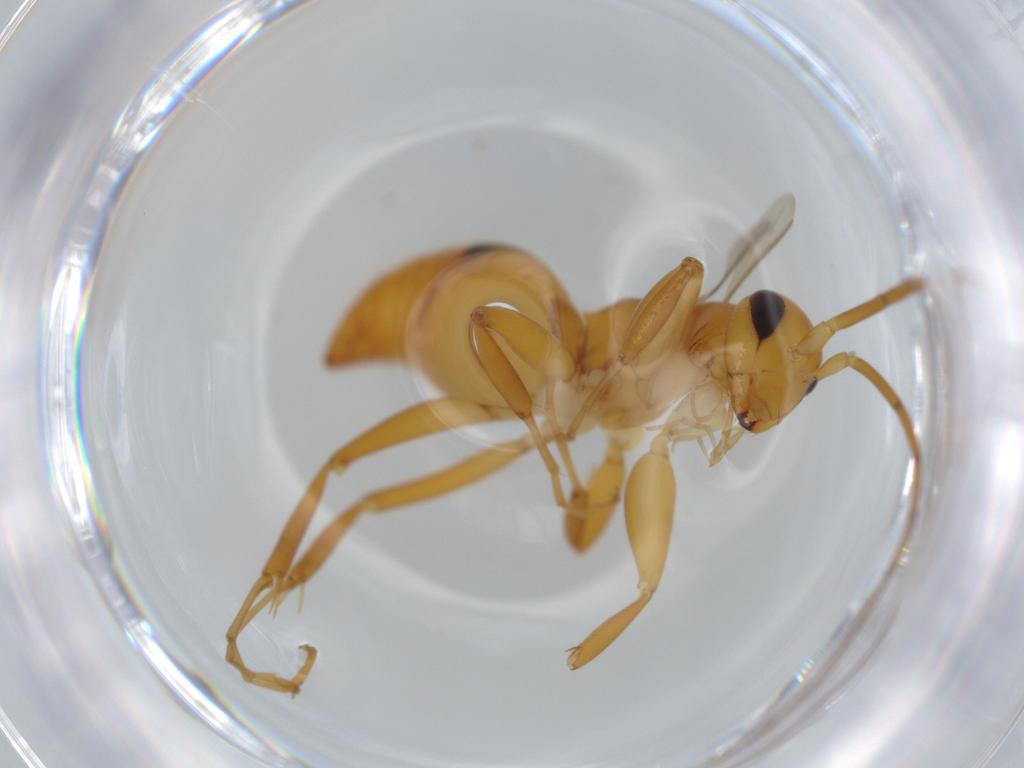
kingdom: Animalia
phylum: Arthropoda
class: Insecta
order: Hymenoptera
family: Rhopalosomatidae
